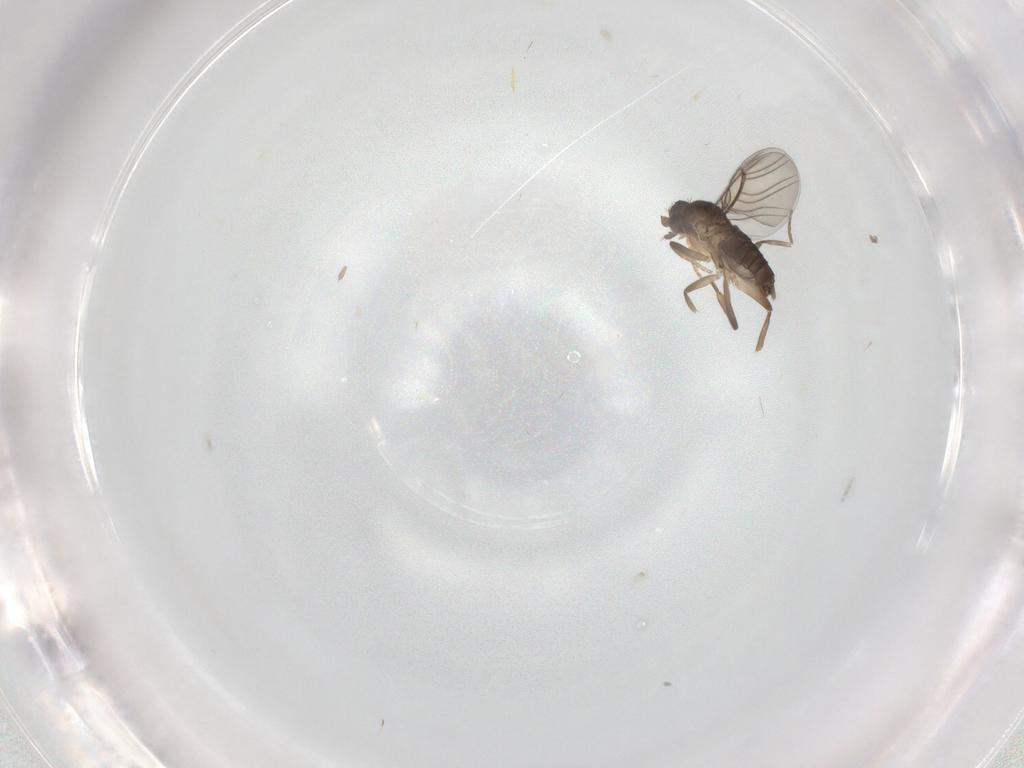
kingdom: Animalia
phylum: Arthropoda
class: Insecta
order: Diptera
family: Phoridae
